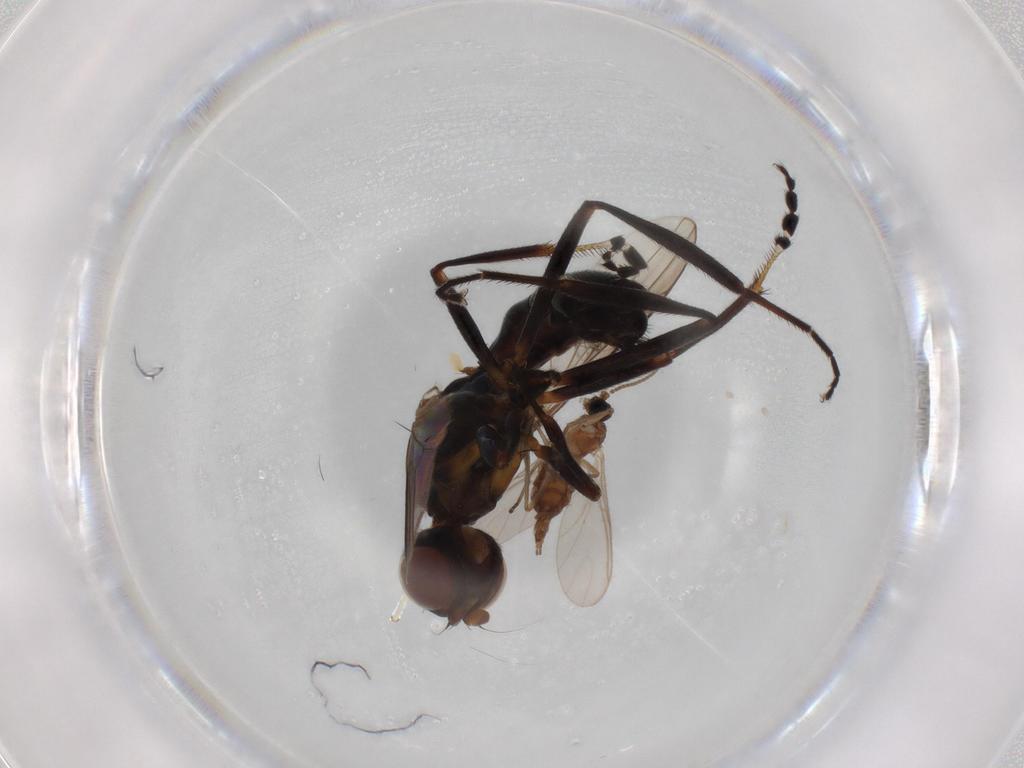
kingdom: Animalia
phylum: Arthropoda
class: Insecta
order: Diptera
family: Sciaridae
